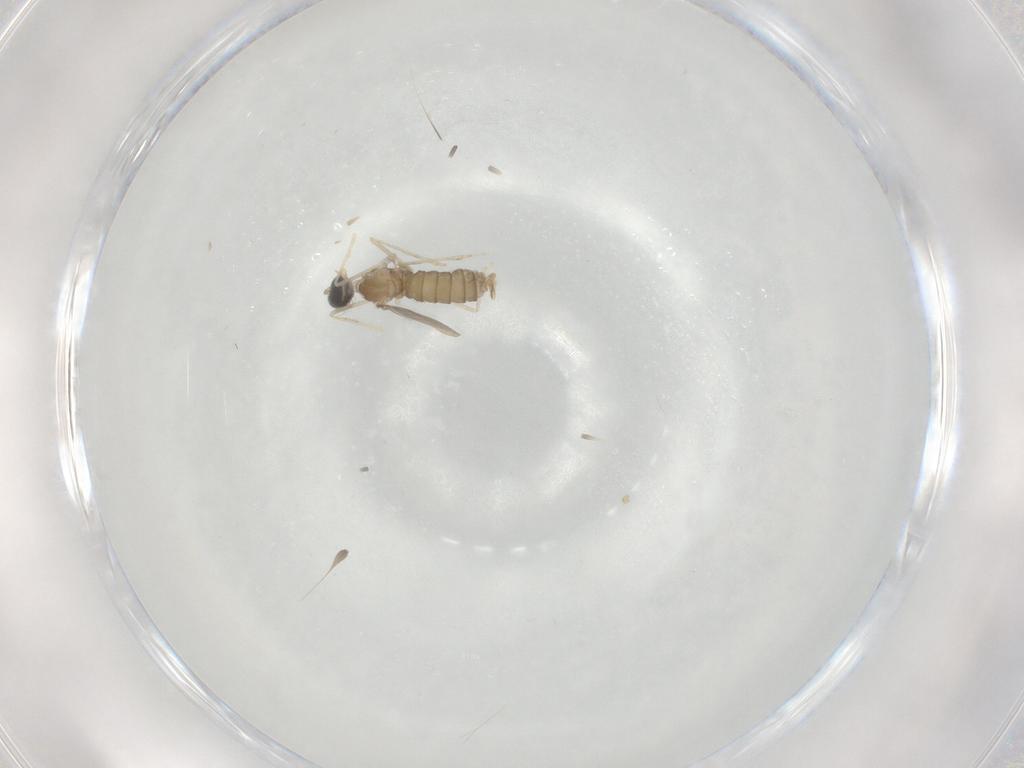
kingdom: Animalia
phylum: Arthropoda
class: Insecta
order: Diptera
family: Cecidomyiidae
